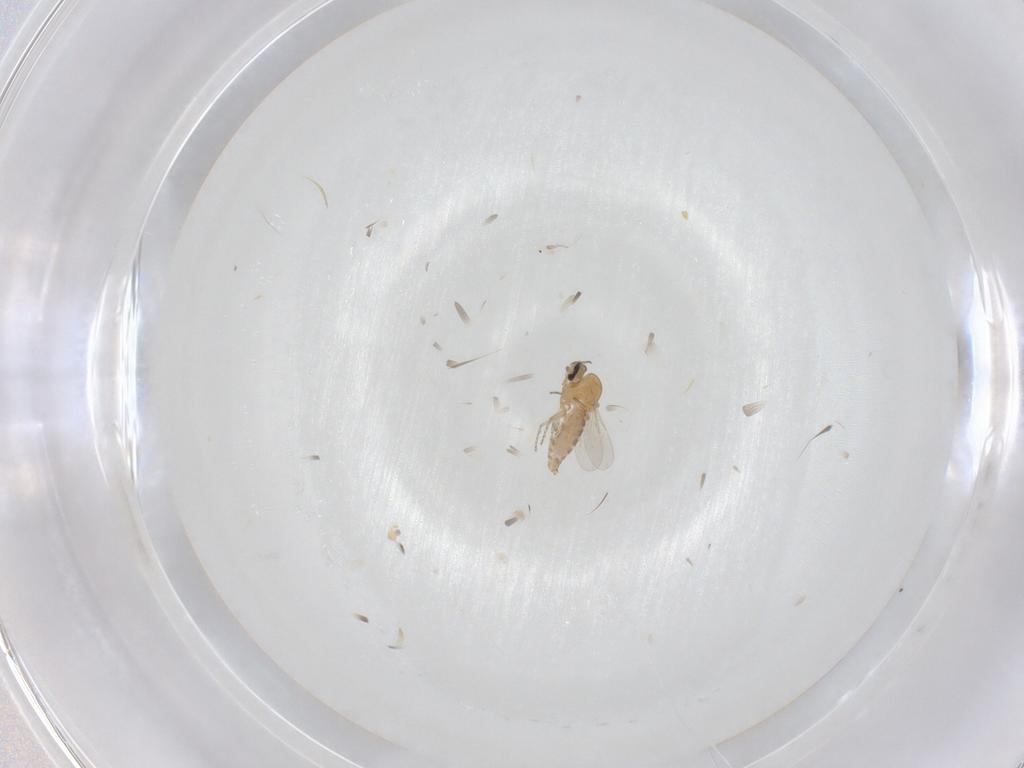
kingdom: Animalia
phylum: Arthropoda
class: Insecta
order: Diptera
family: Ceratopogonidae
